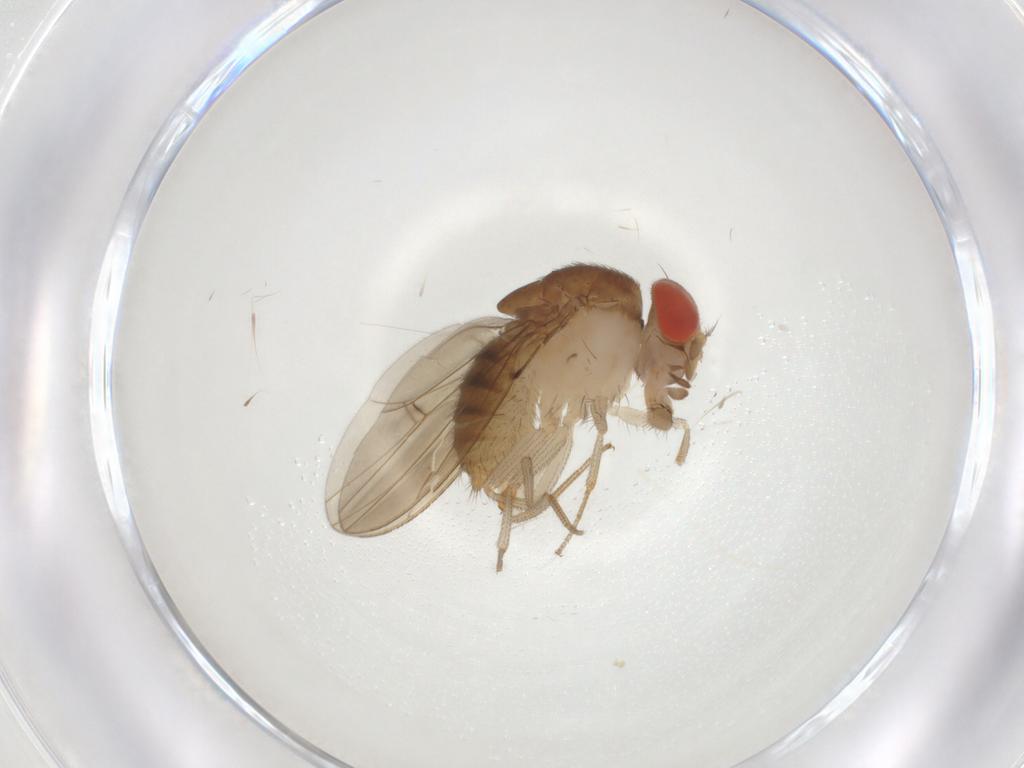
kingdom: Animalia
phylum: Arthropoda
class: Insecta
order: Diptera
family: Drosophilidae
